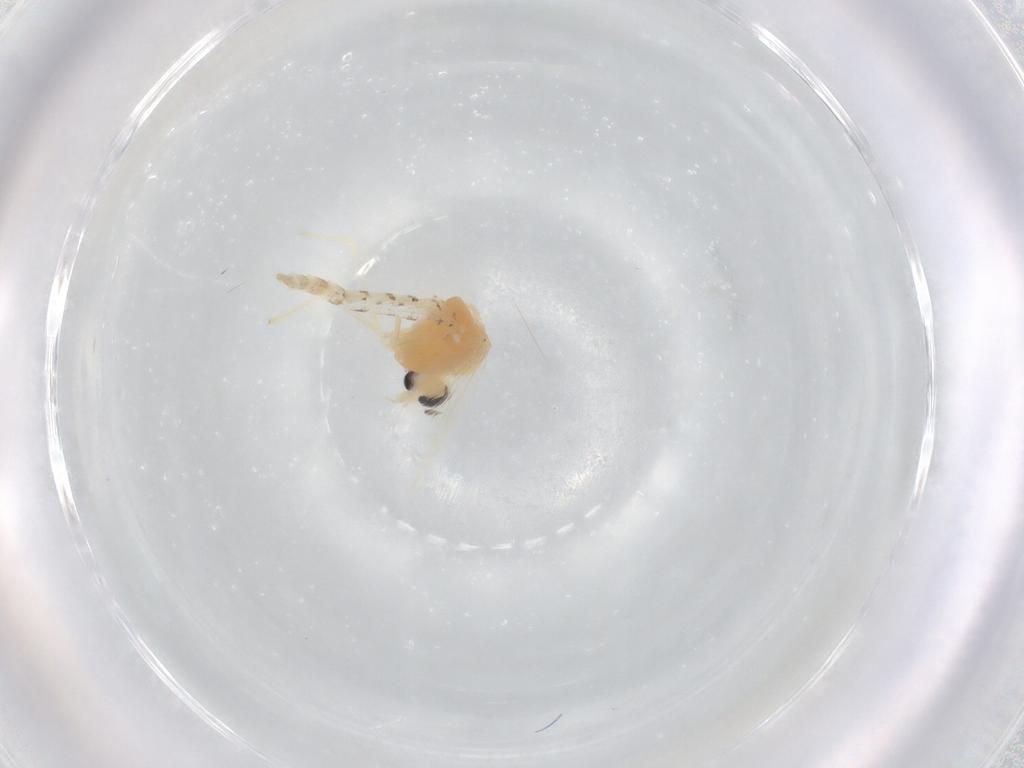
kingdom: Animalia
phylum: Arthropoda
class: Insecta
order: Diptera
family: Chironomidae
